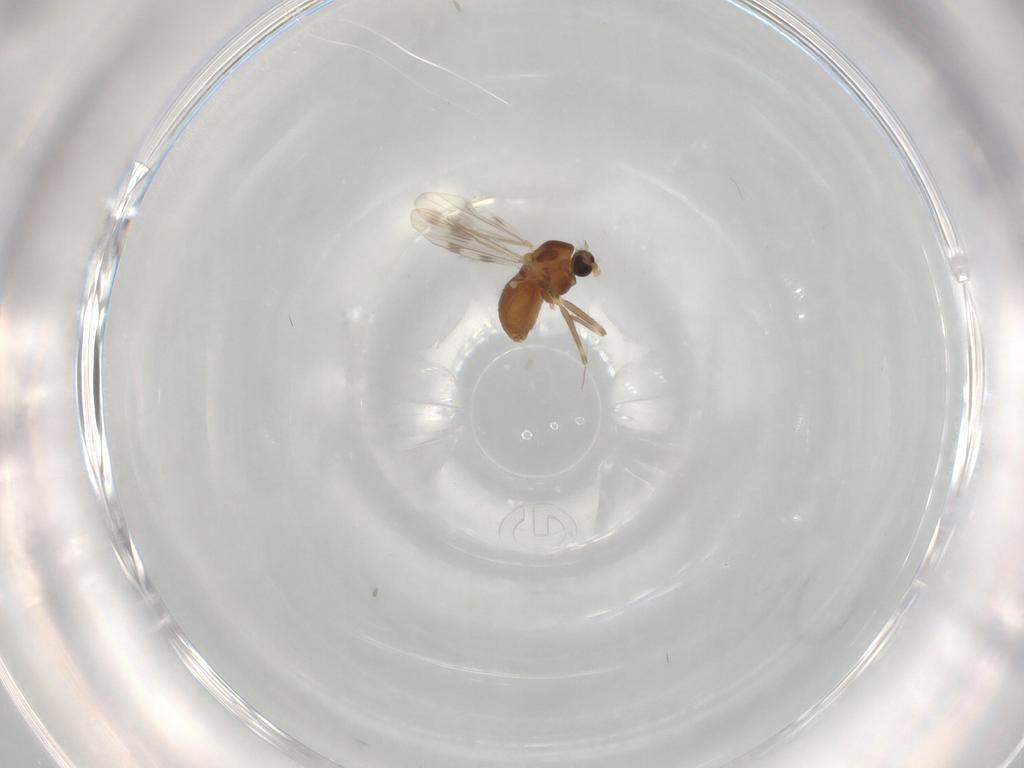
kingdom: Animalia
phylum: Arthropoda
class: Insecta
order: Diptera
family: Chironomidae
